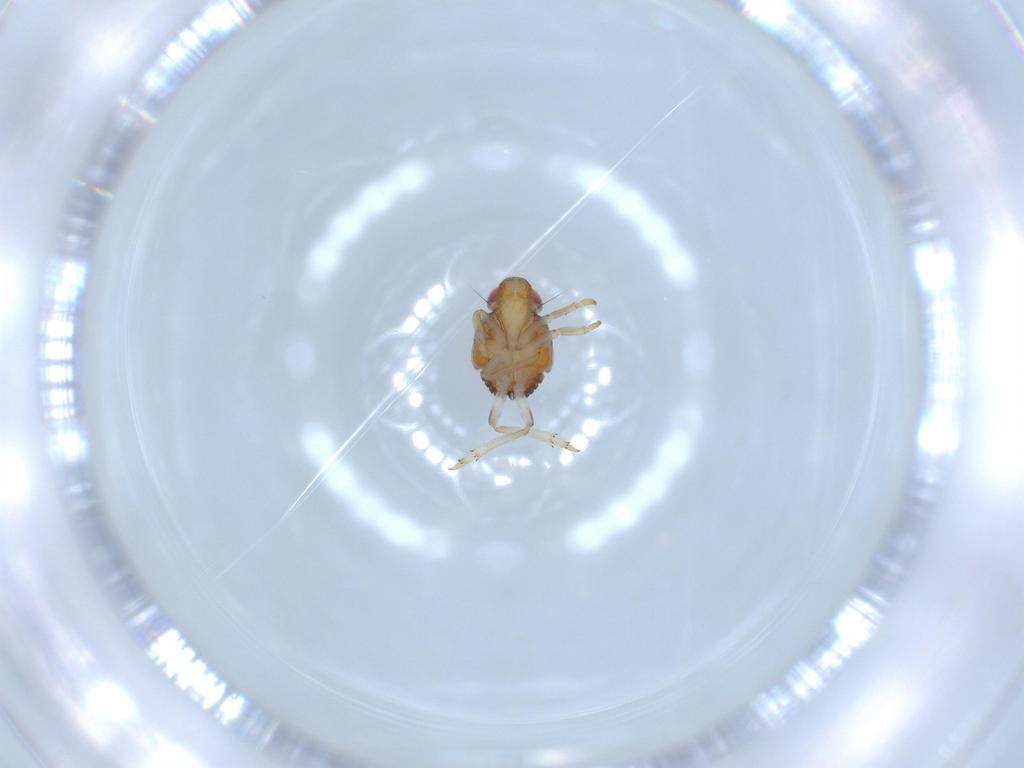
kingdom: Animalia
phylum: Arthropoda
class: Insecta
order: Hemiptera
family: Issidae
